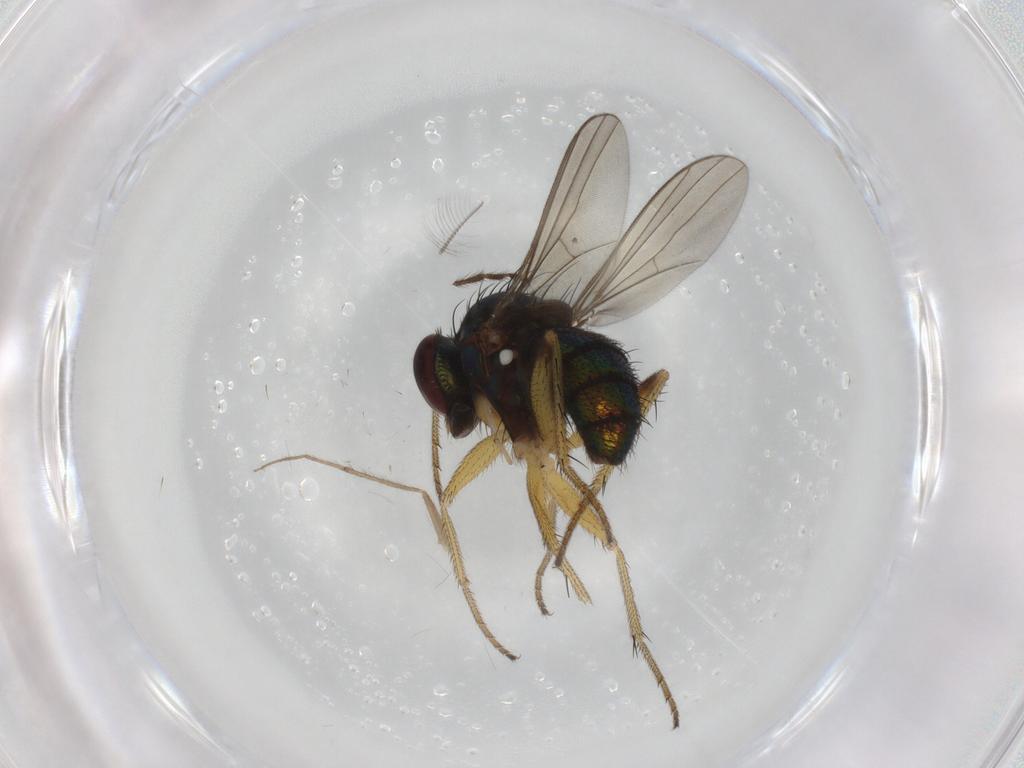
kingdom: Animalia
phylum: Arthropoda
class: Insecta
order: Diptera
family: Dolichopodidae
